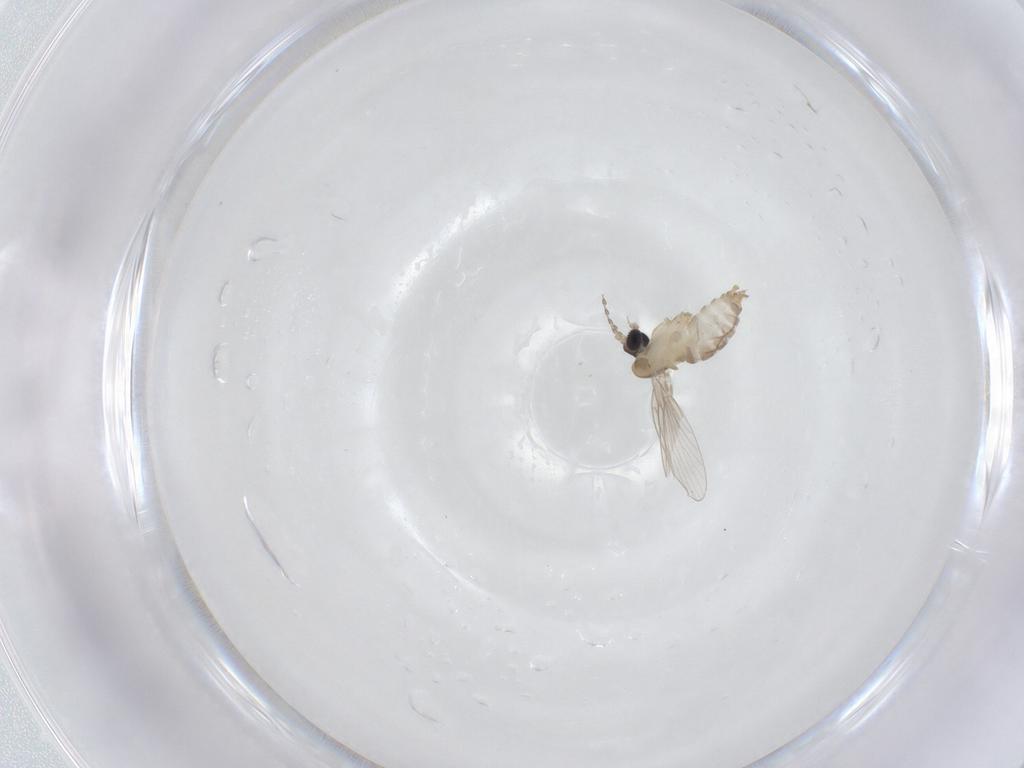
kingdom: Animalia
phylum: Arthropoda
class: Insecta
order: Diptera
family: Psychodidae
